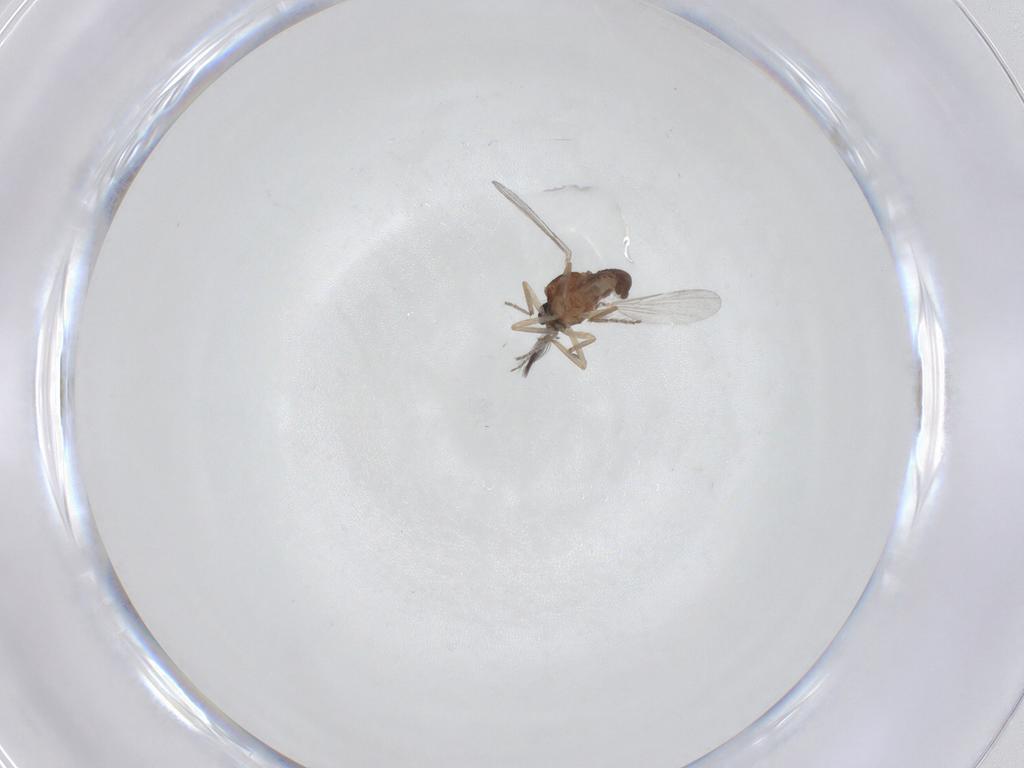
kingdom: Animalia
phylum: Arthropoda
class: Insecta
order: Diptera
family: Ceratopogonidae
